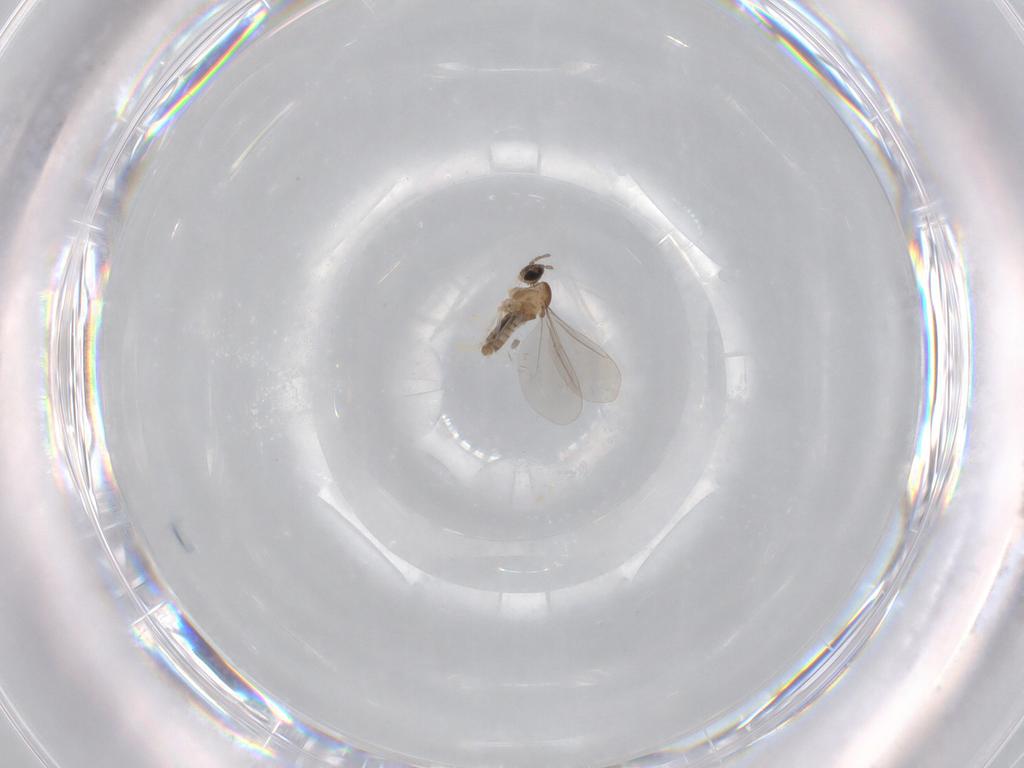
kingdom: Animalia
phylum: Arthropoda
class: Insecta
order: Diptera
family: Cecidomyiidae
